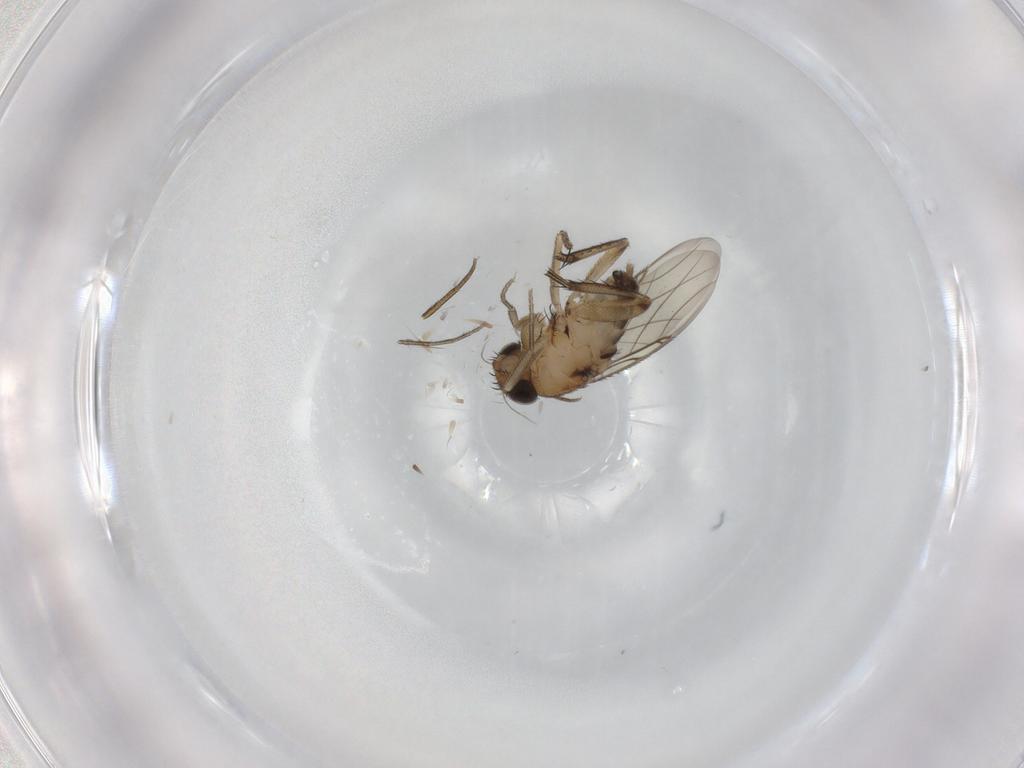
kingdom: Animalia
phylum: Arthropoda
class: Insecta
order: Diptera
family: Phoridae
